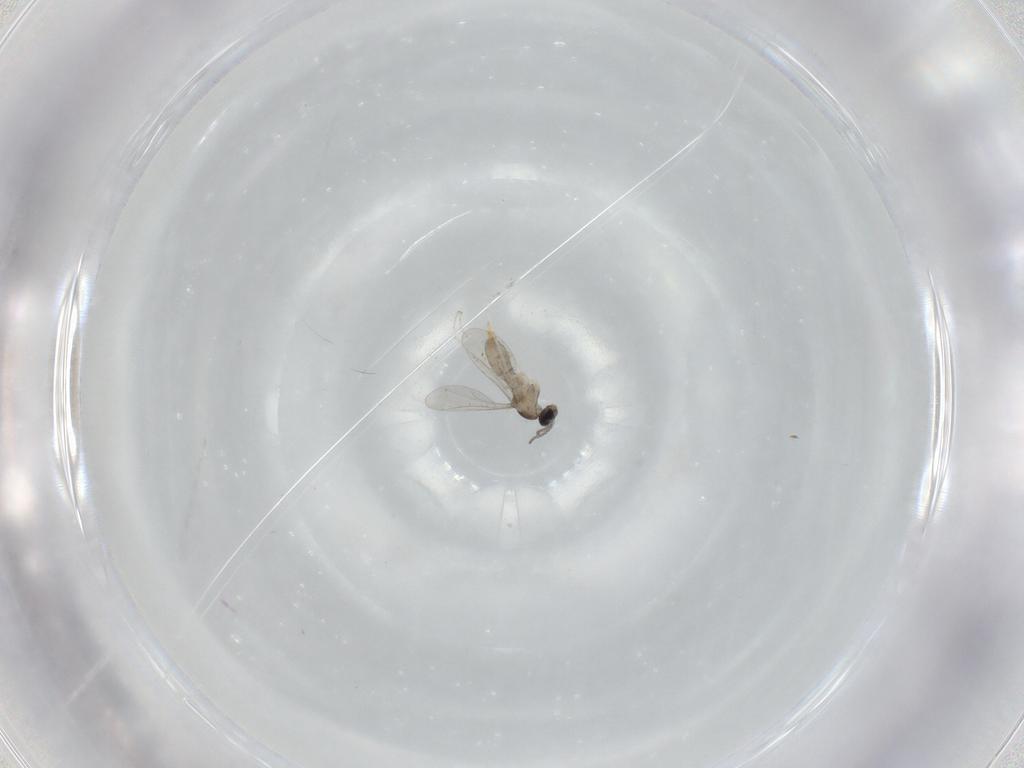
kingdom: Animalia
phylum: Arthropoda
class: Insecta
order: Diptera
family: Cecidomyiidae
